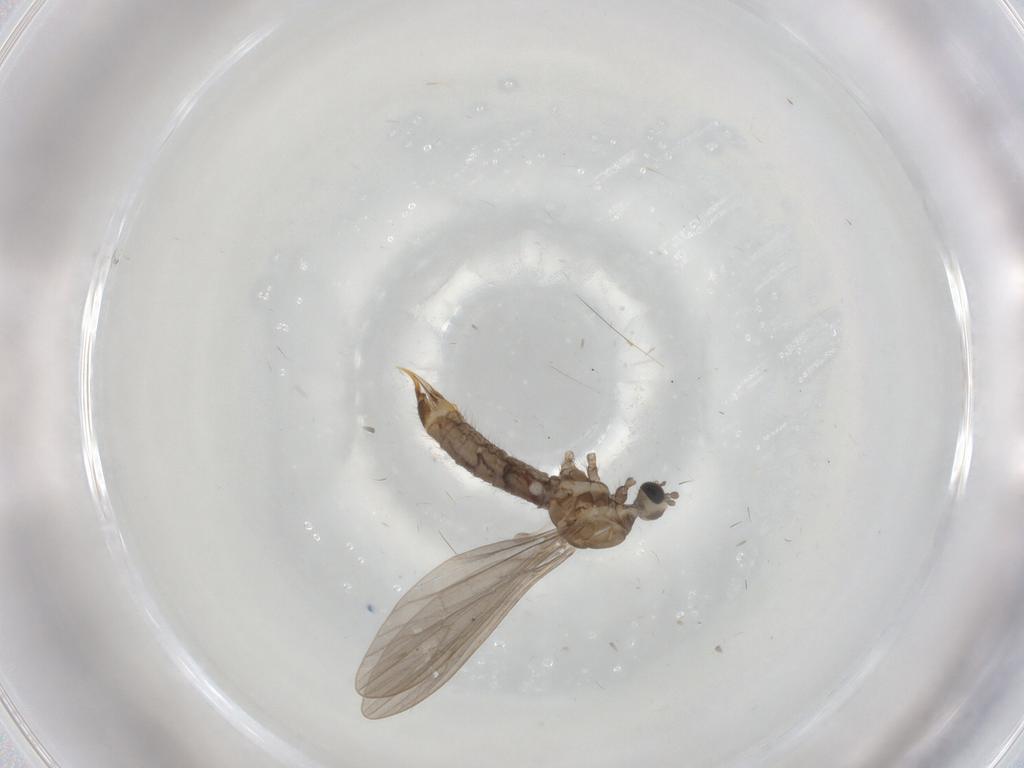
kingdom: Animalia
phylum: Arthropoda
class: Insecta
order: Diptera
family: Limoniidae
